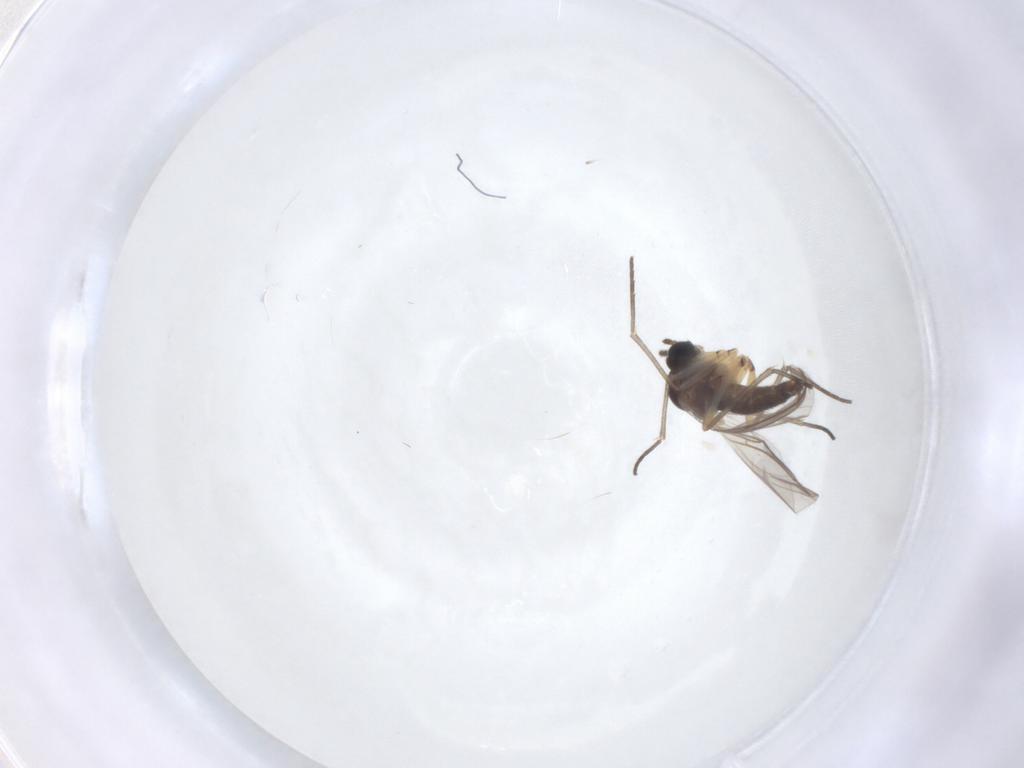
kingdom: Animalia
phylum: Arthropoda
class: Insecta
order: Diptera
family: Sciaridae
